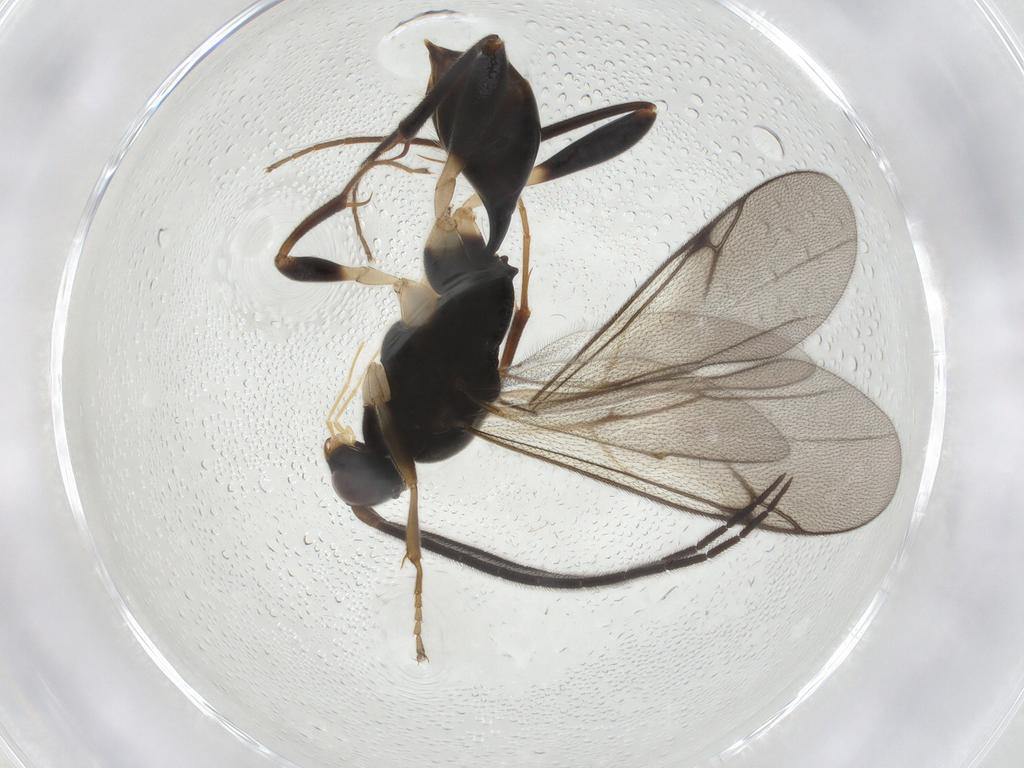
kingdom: Animalia
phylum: Arthropoda
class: Insecta
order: Hymenoptera
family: Proctotrupidae
